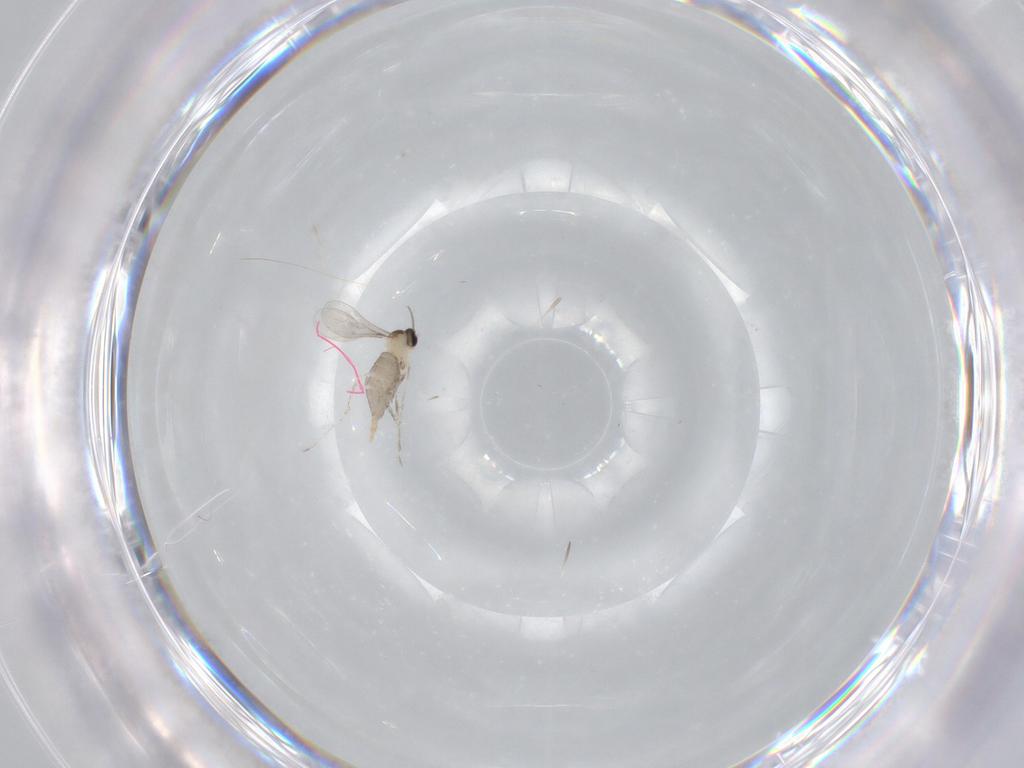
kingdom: Animalia
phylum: Arthropoda
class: Insecta
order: Diptera
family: Cecidomyiidae
